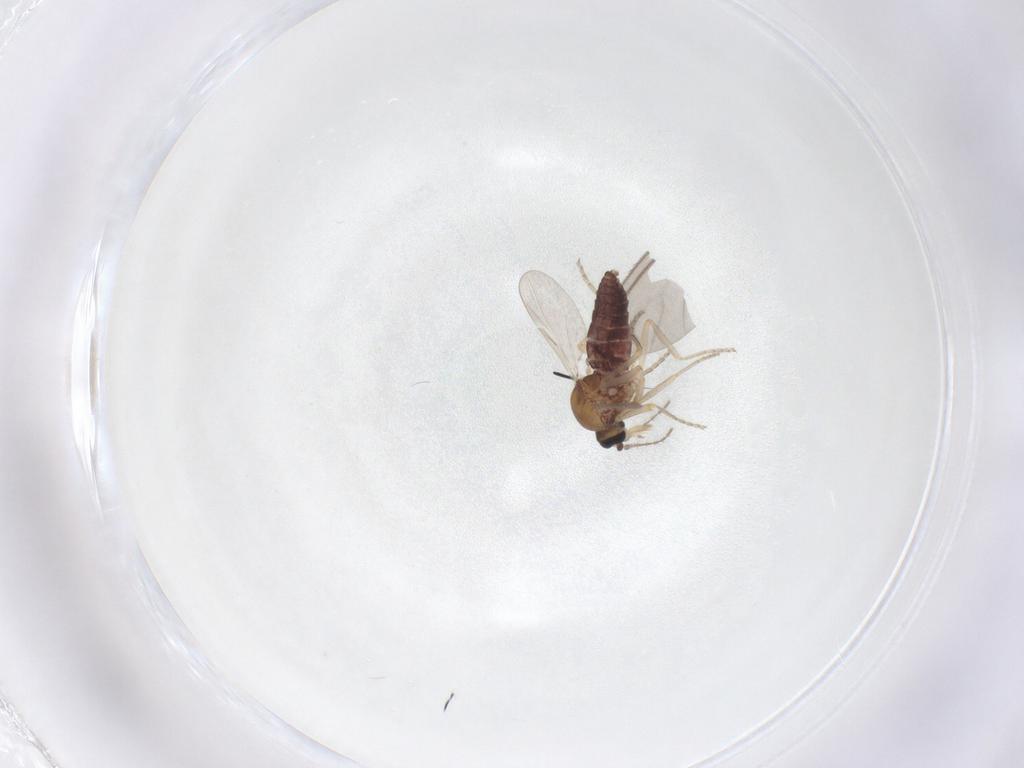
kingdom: Animalia
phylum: Arthropoda
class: Insecta
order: Diptera
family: Ceratopogonidae
